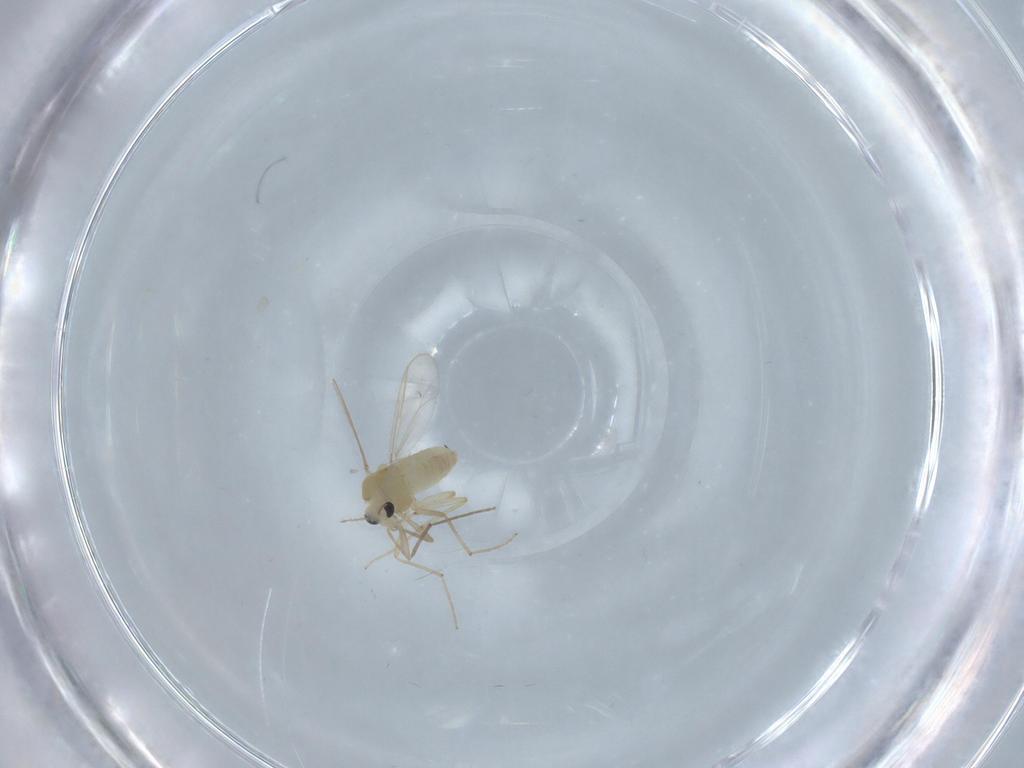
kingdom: Animalia
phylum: Arthropoda
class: Insecta
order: Diptera
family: Chironomidae
